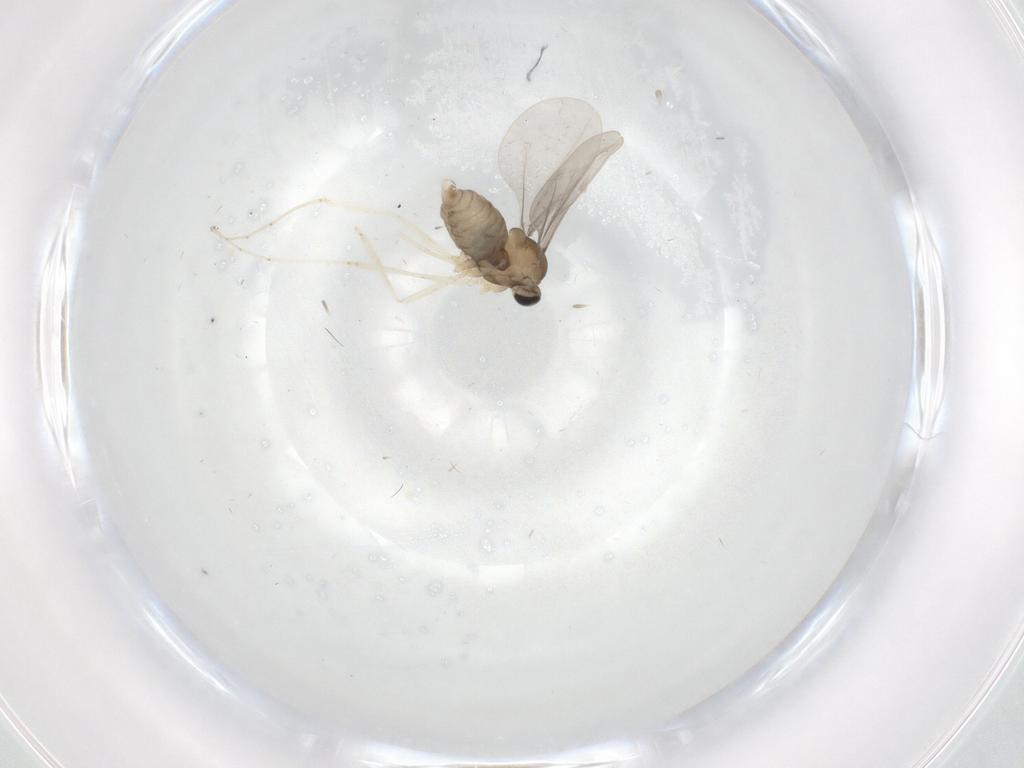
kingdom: Animalia
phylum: Arthropoda
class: Insecta
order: Diptera
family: Cecidomyiidae
